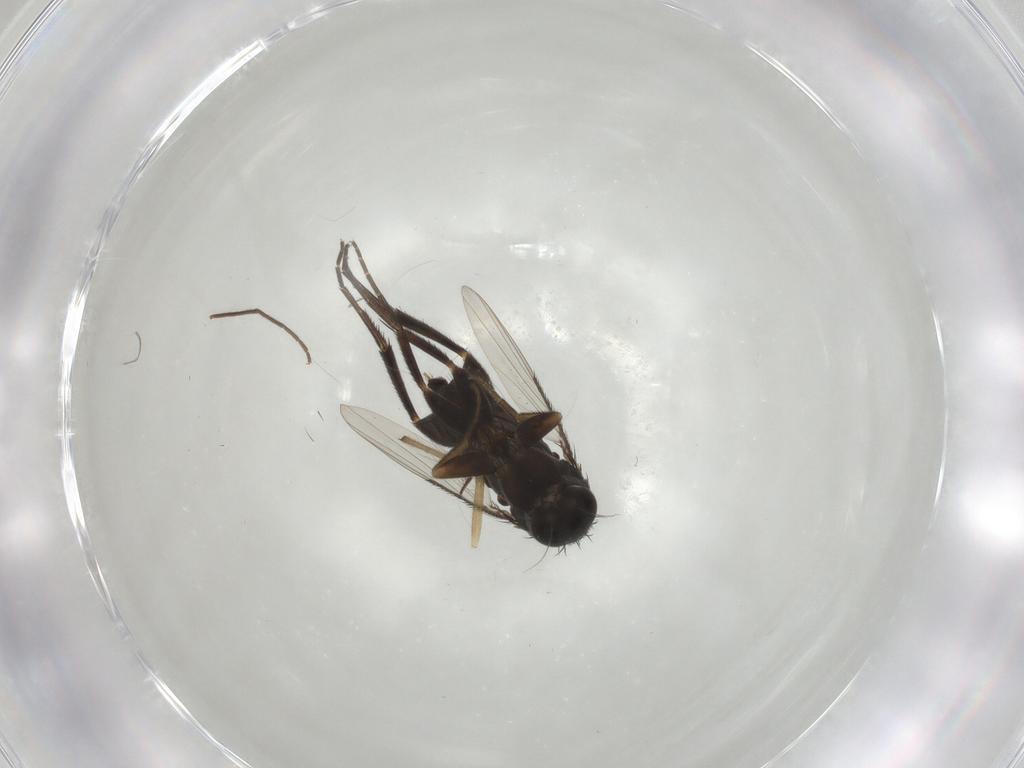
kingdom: Animalia
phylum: Arthropoda
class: Insecta
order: Diptera
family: Phoridae
